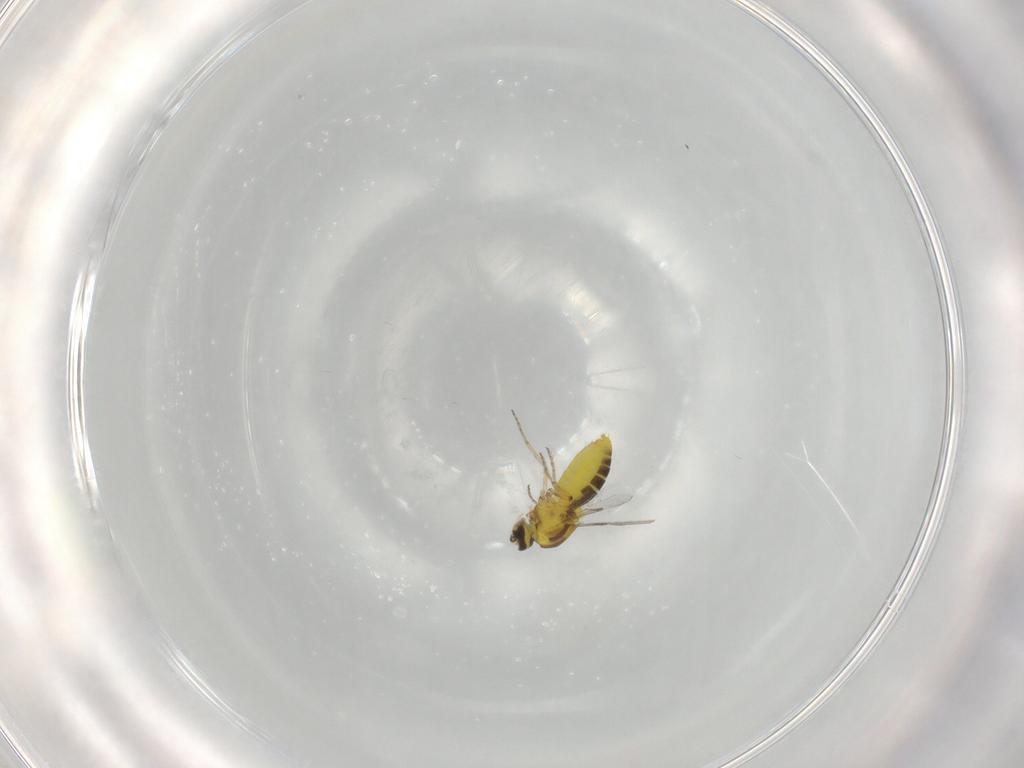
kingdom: Animalia
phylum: Arthropoda
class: Insecta
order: Diptera
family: Ceratopogonidae
